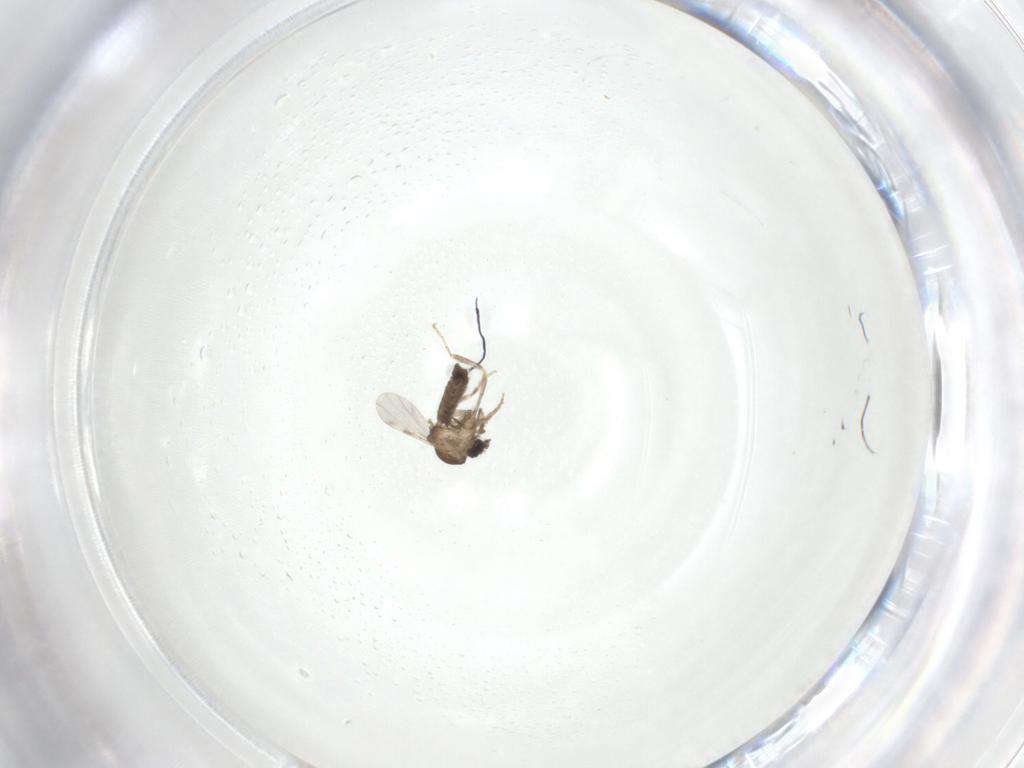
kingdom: Animalia
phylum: Arthropoda
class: Insecta
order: Diptera
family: Ceratopogonidae
